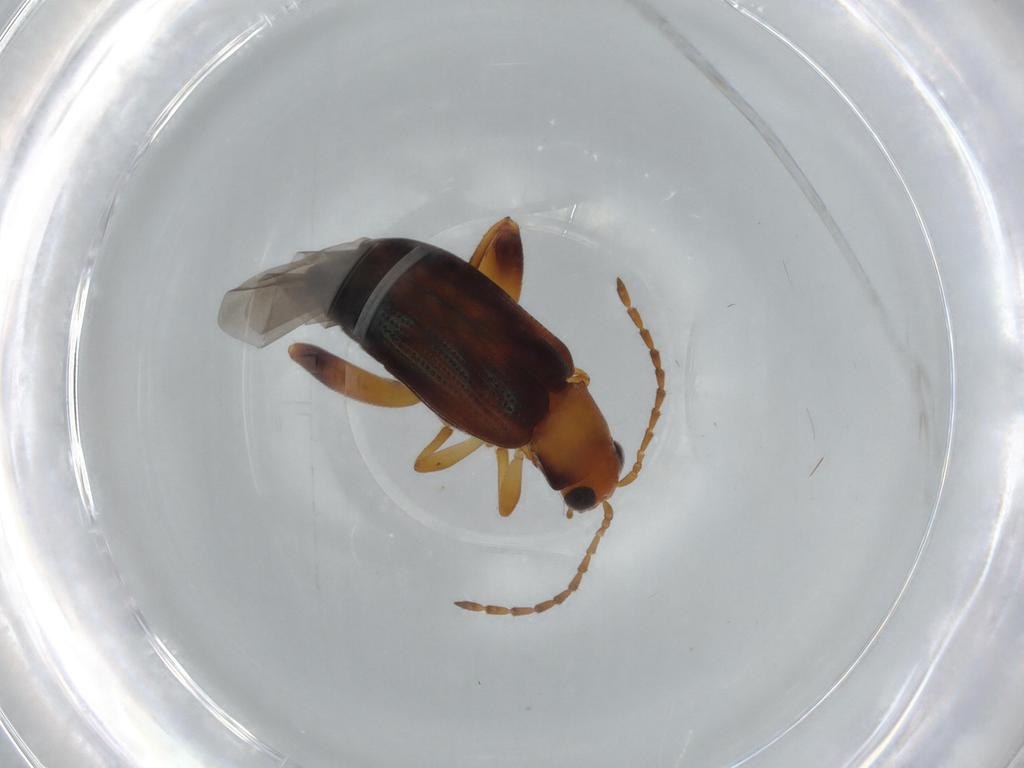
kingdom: Animalia
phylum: Arthropoda
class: Insecta
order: Coleoptera
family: Chrysomelidae
